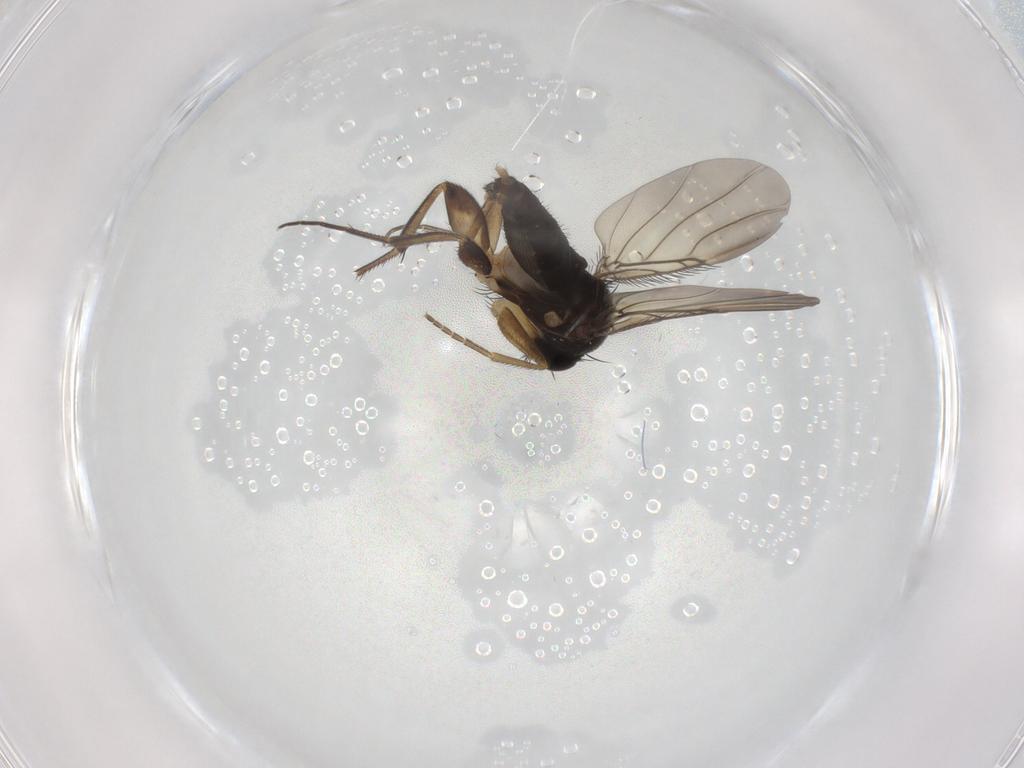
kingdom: Animalia
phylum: Arthropoda
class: Insecta
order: Diptera
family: Phoridae
